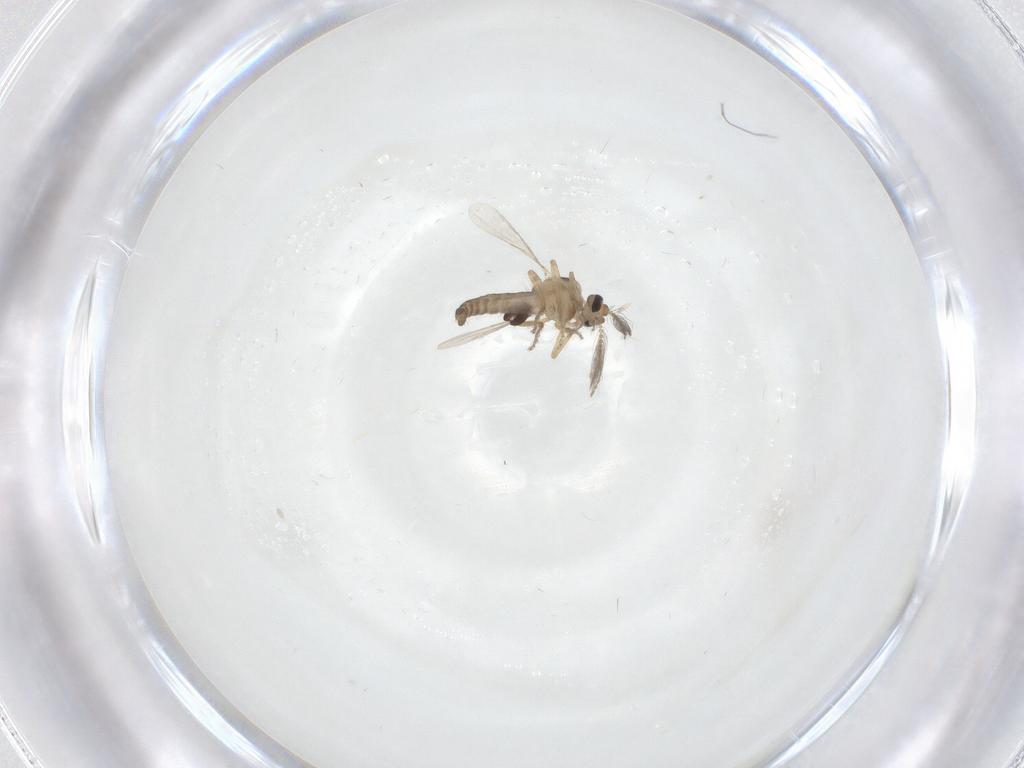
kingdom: Animalia
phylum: Arthropoda
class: Insecta
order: Diptera
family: Ceratopogonidae
